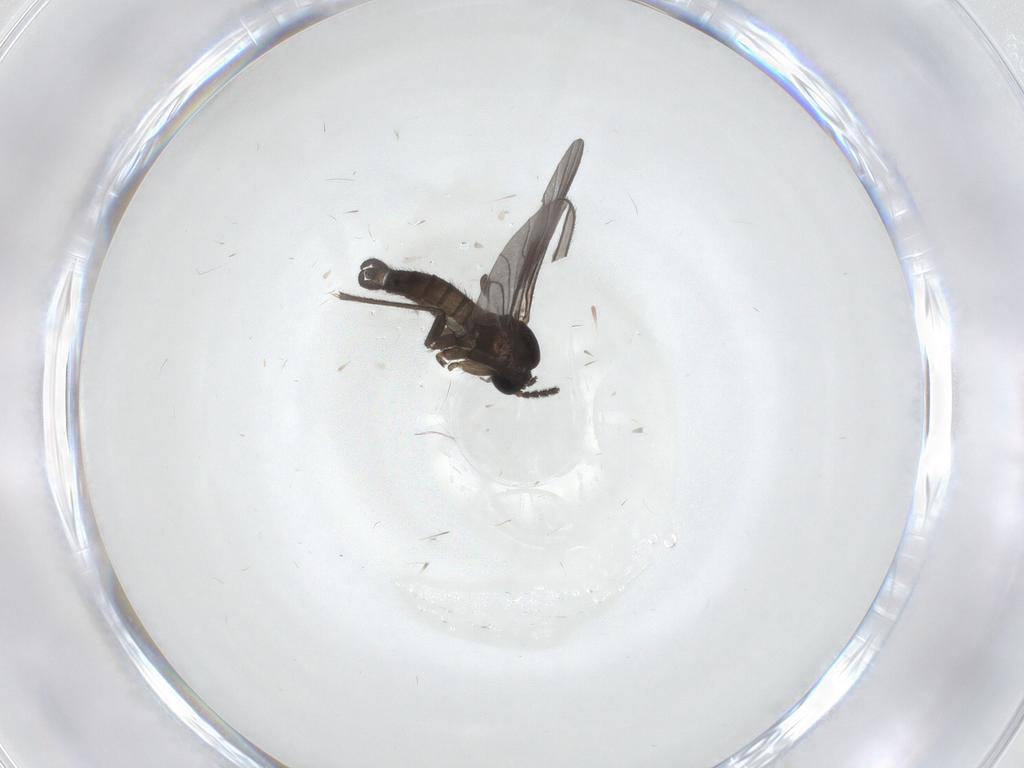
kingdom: Animalia
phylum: Arthropoda
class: Insecta
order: Diptera
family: Sciaridae
